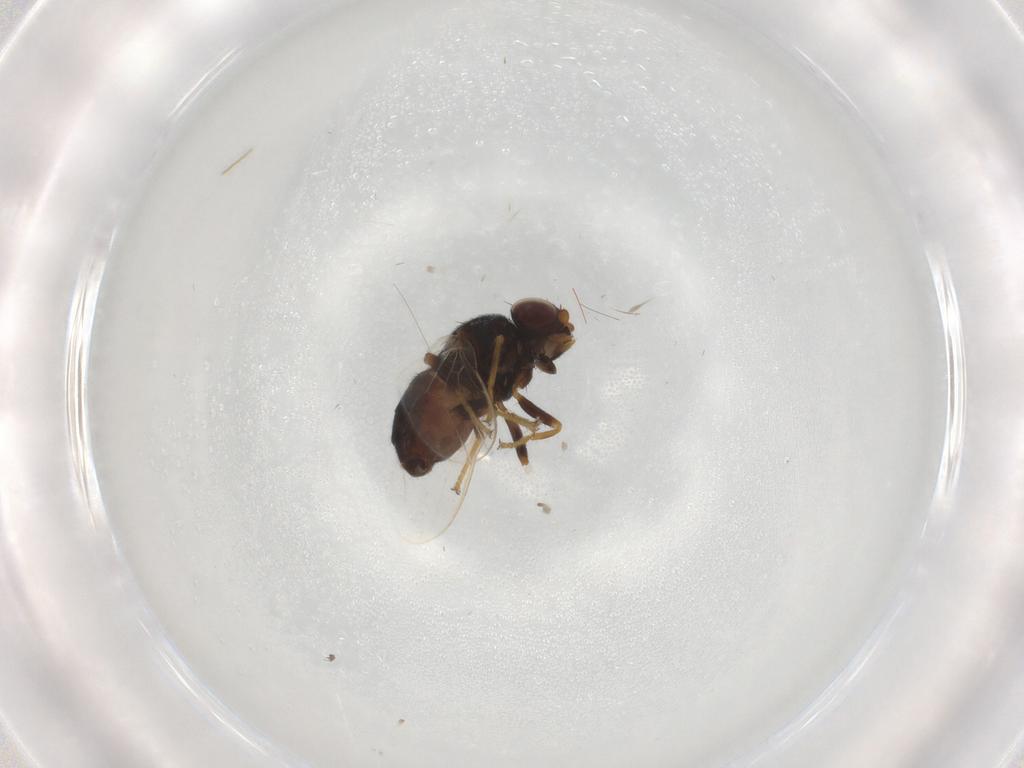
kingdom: Animalia
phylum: Arthropoda
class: Insecta
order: Diptera
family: Chloropidae
